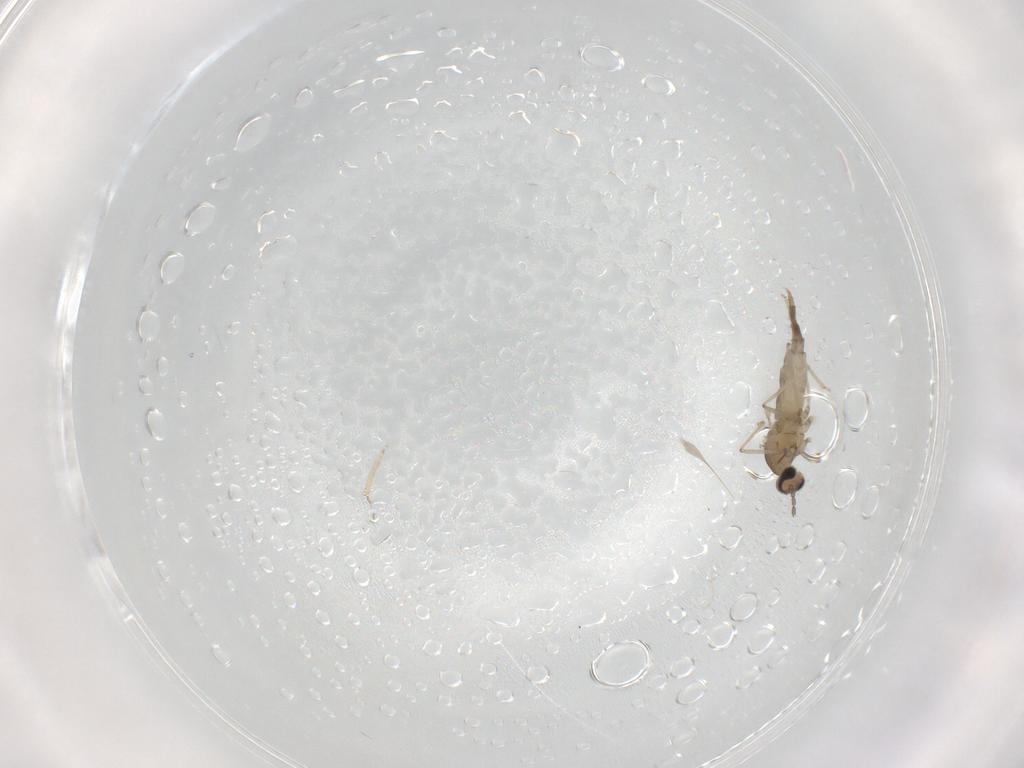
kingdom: Animalia
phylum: Arthropoda
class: Insecta
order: Diptera
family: Cecidomyiidae
